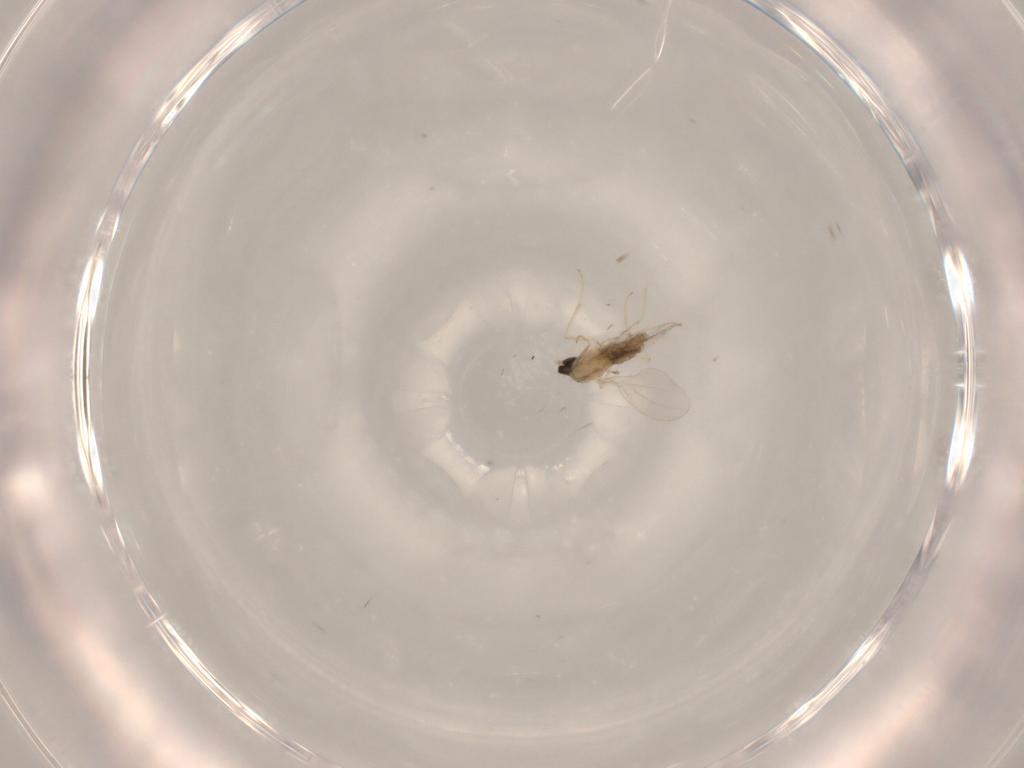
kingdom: Animalia
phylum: Arthropoda
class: Insecta
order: Diptera
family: Cecidomyiidae
